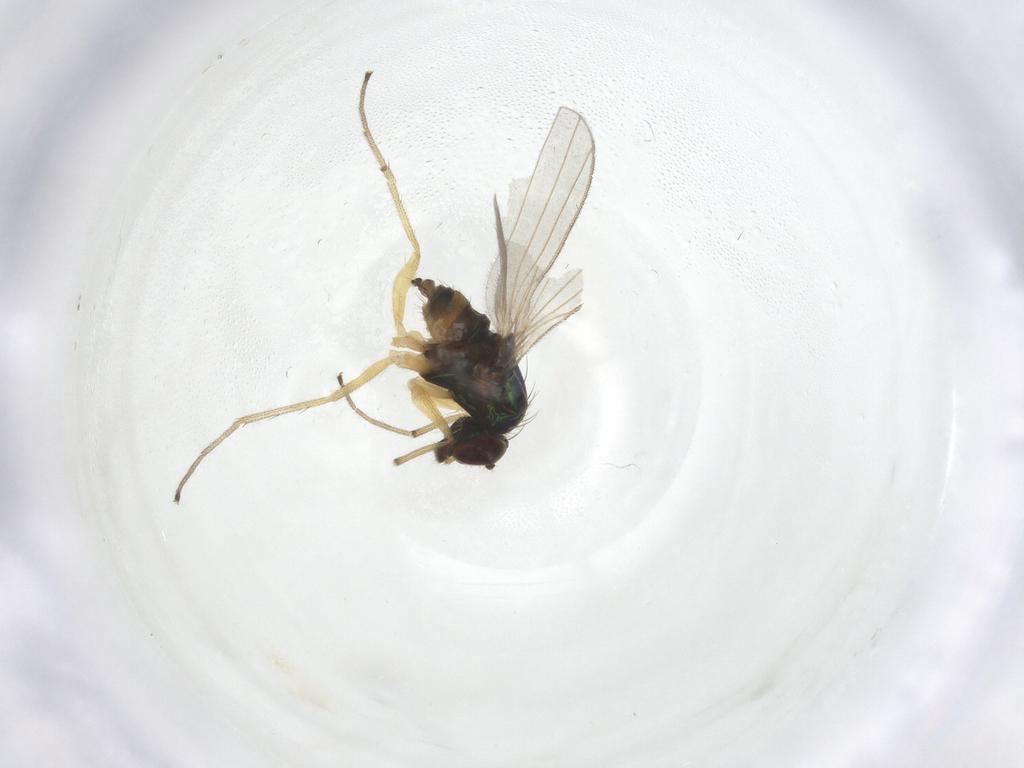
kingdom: Animalia
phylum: Arthropoda
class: Insecta
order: Diptera
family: Dolichopodidae
